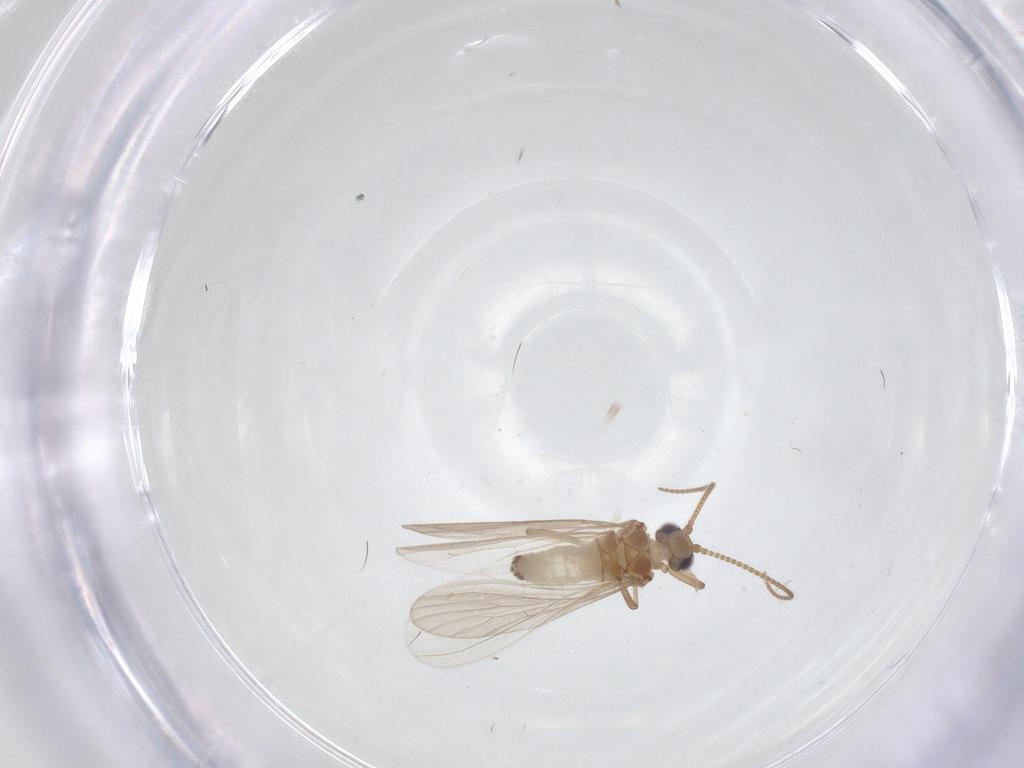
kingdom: Animalia
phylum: Arthropoda
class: Insecta
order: Neuroptera
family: Coniopterygidae
